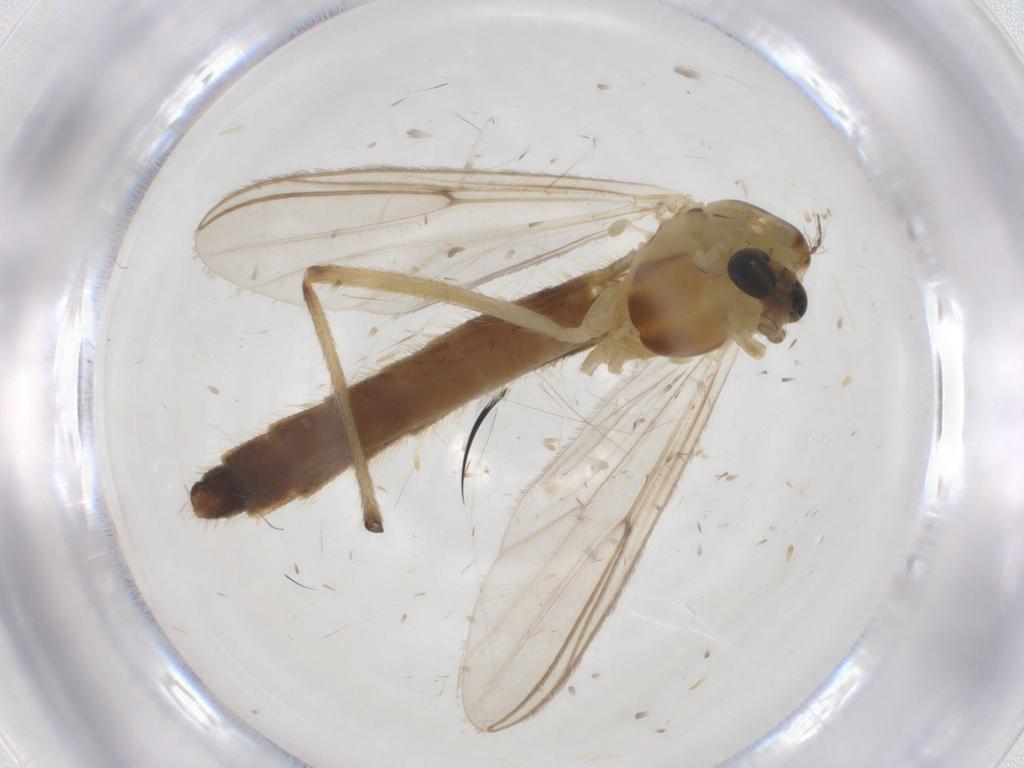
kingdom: Animalia
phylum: Arthropoda
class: Insecta
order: Diptera
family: Chironomidae
